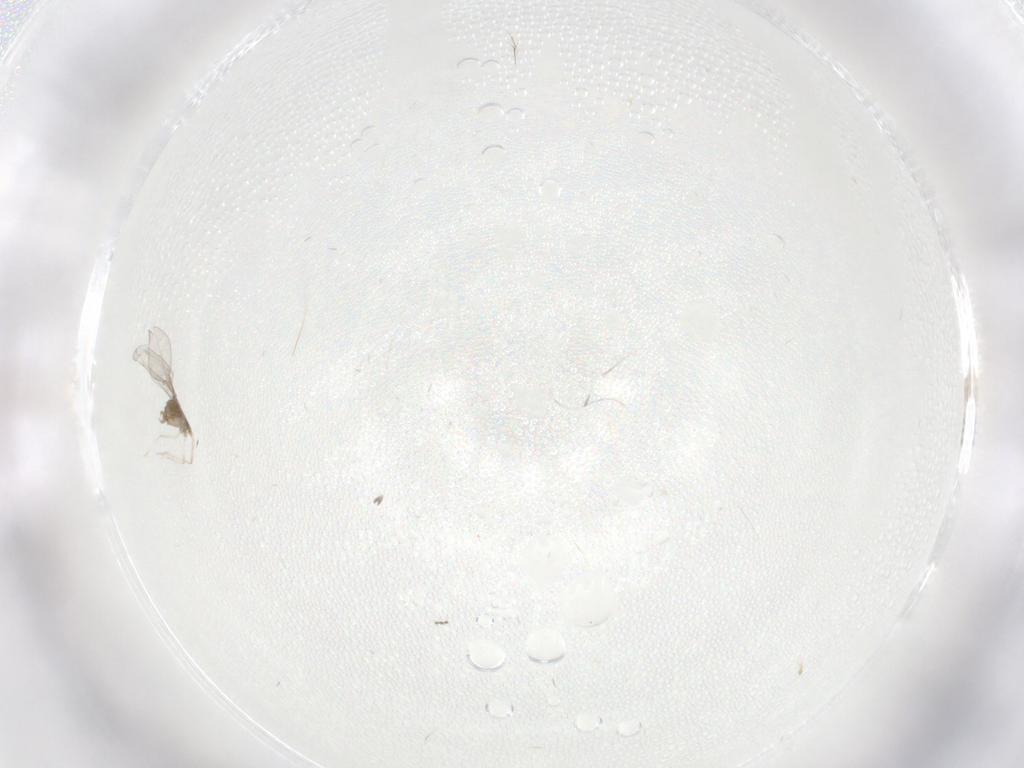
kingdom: Animalia
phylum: Arthropoda
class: Insecta
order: Diptera
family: Cecidomyiidae
